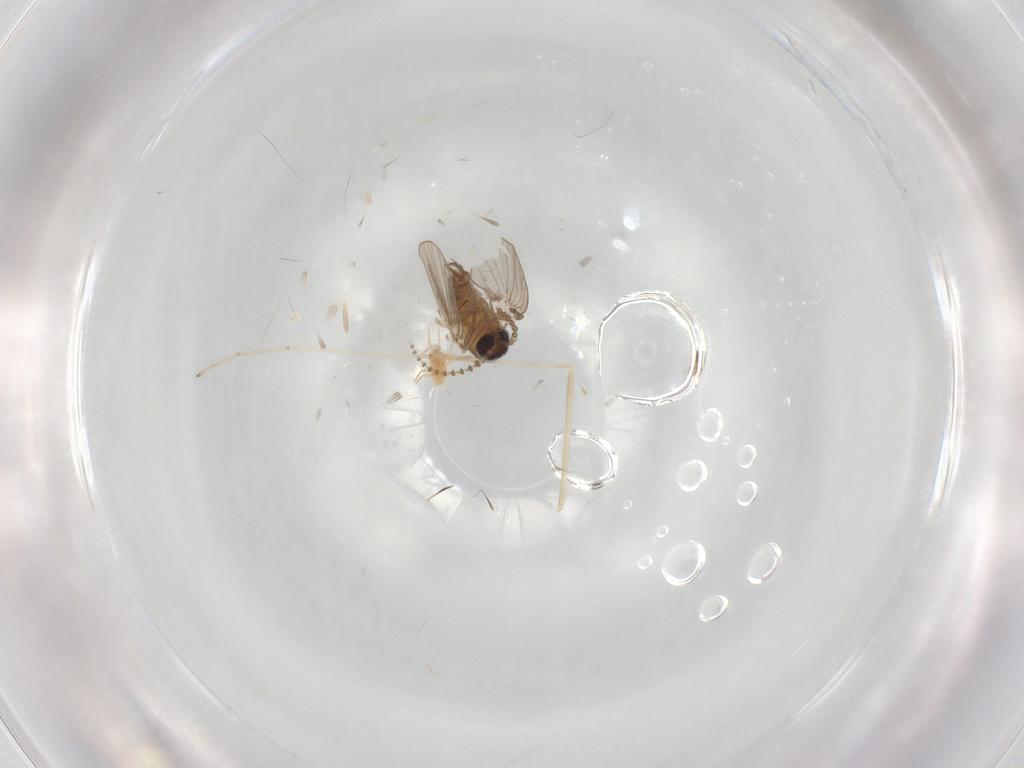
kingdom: Animalia
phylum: Arthropoda
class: Insecta
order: Diptera
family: Psychodidae
